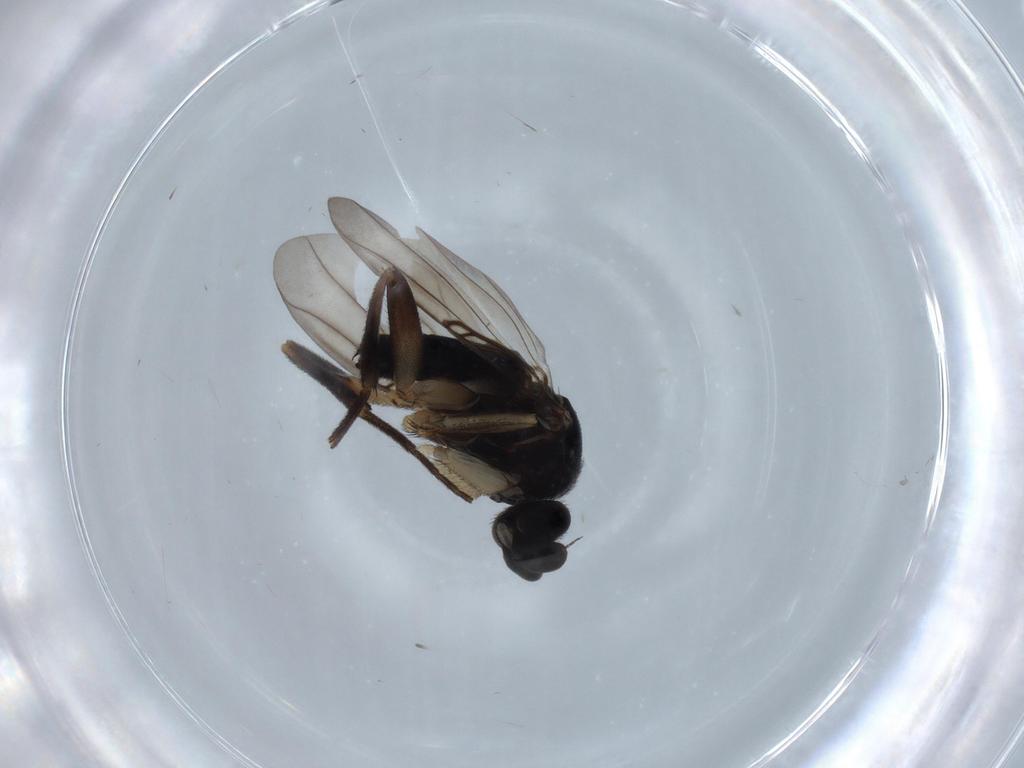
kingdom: Animalia
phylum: Arthropoda
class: Insecta
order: Diptera
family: Phoridae
